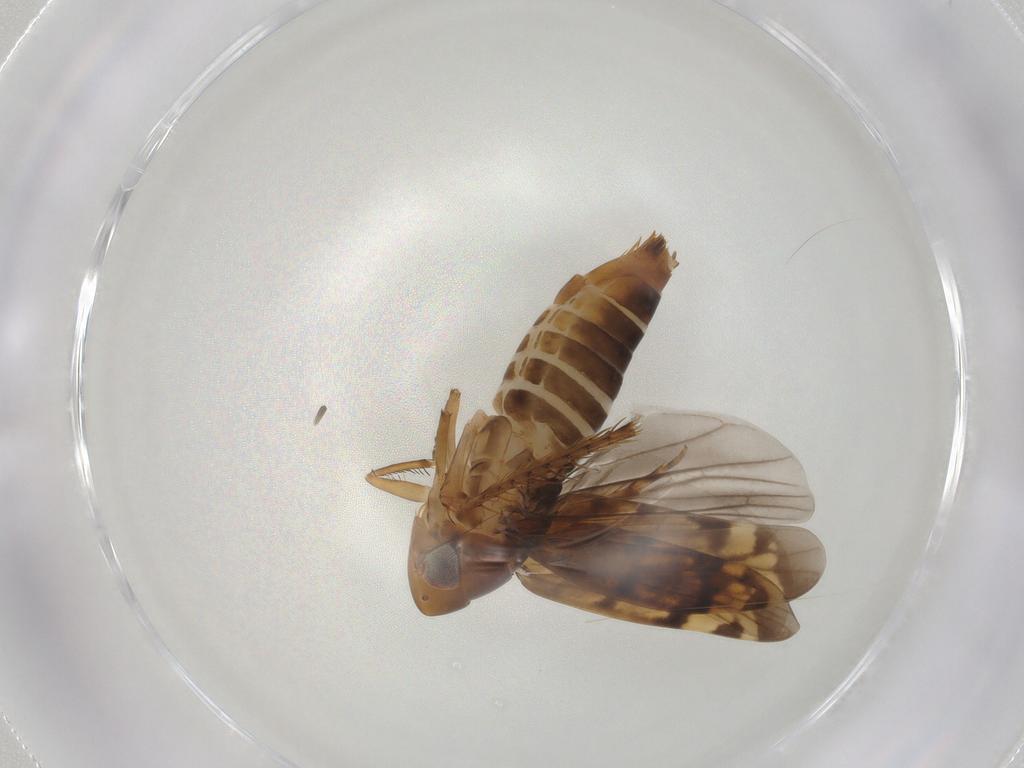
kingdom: Animalia
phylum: Arthropoda
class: Insecta
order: Hemiptera
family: Cicadellidae
